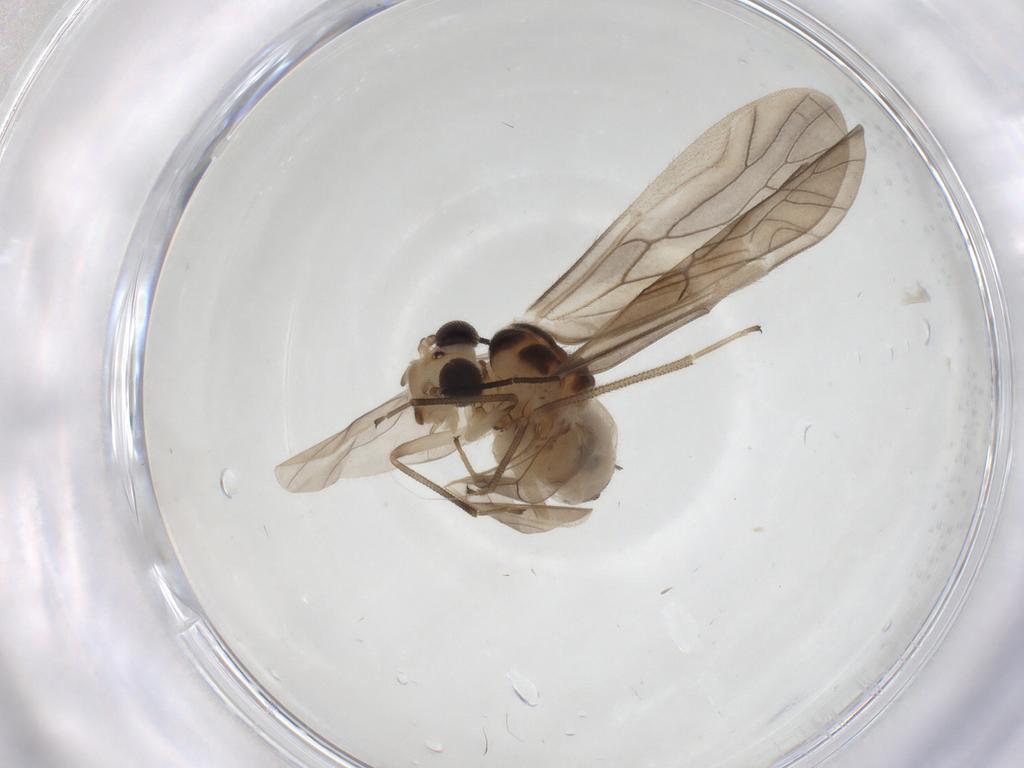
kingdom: Animalia
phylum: Arthropoda
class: Insecta
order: Psocodea
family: Caeciliusidae
